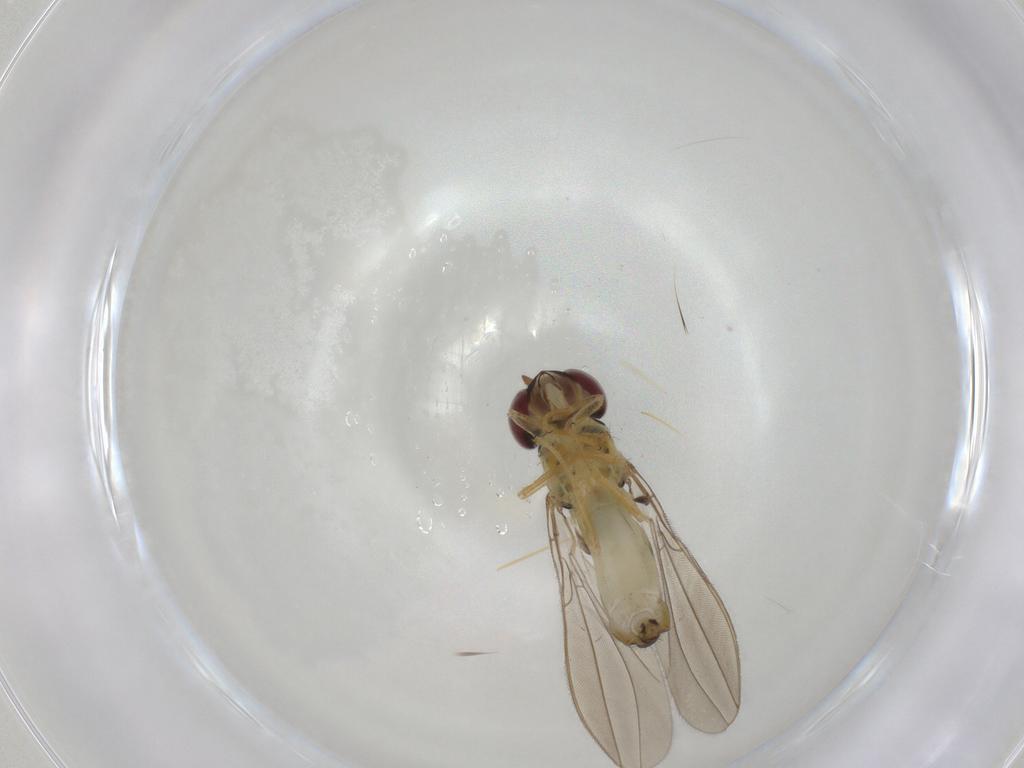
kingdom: Animalia
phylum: Arthropoda
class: Insecta
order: Diptera
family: Asteiidae
